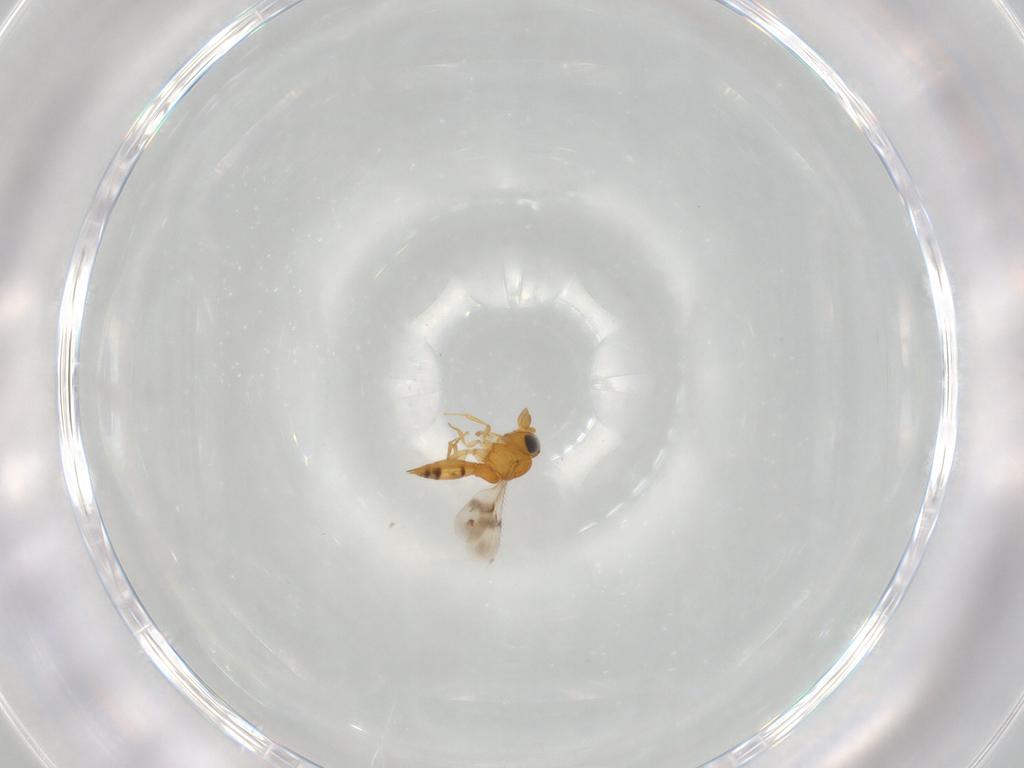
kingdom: Animalia
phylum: Arthropoda
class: Insecta
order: Hymenoptera
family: Scelionidae
